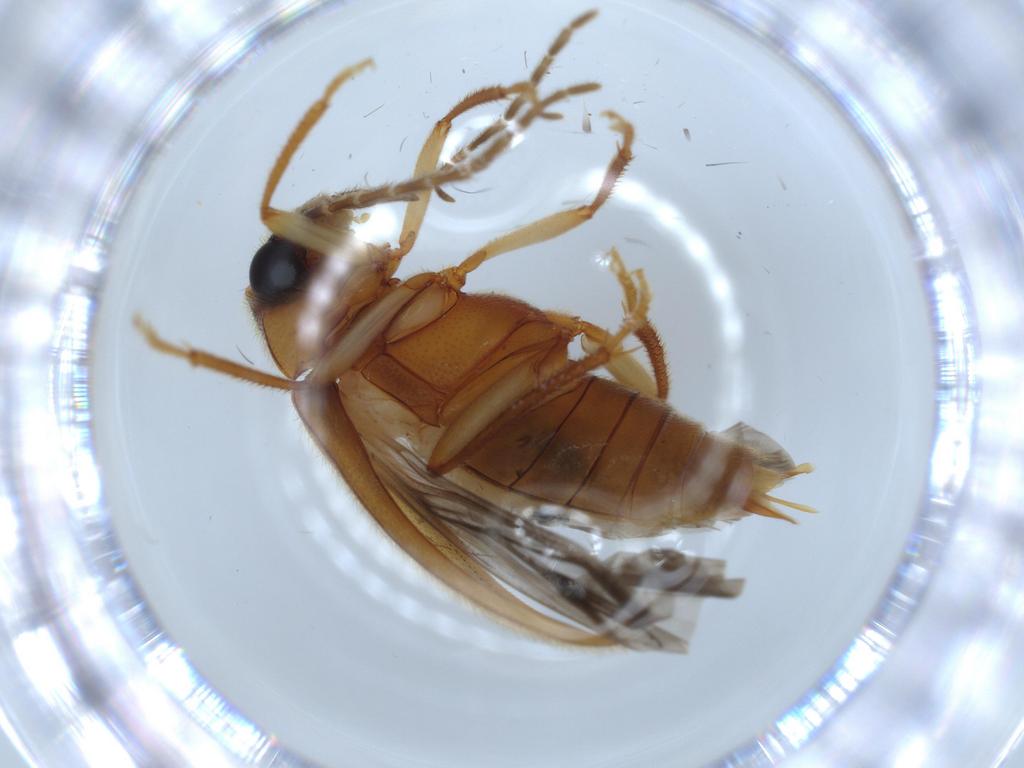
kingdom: Animalia
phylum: Arthropoda
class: Insecta
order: Coleoptera
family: Ptilodactylidae
